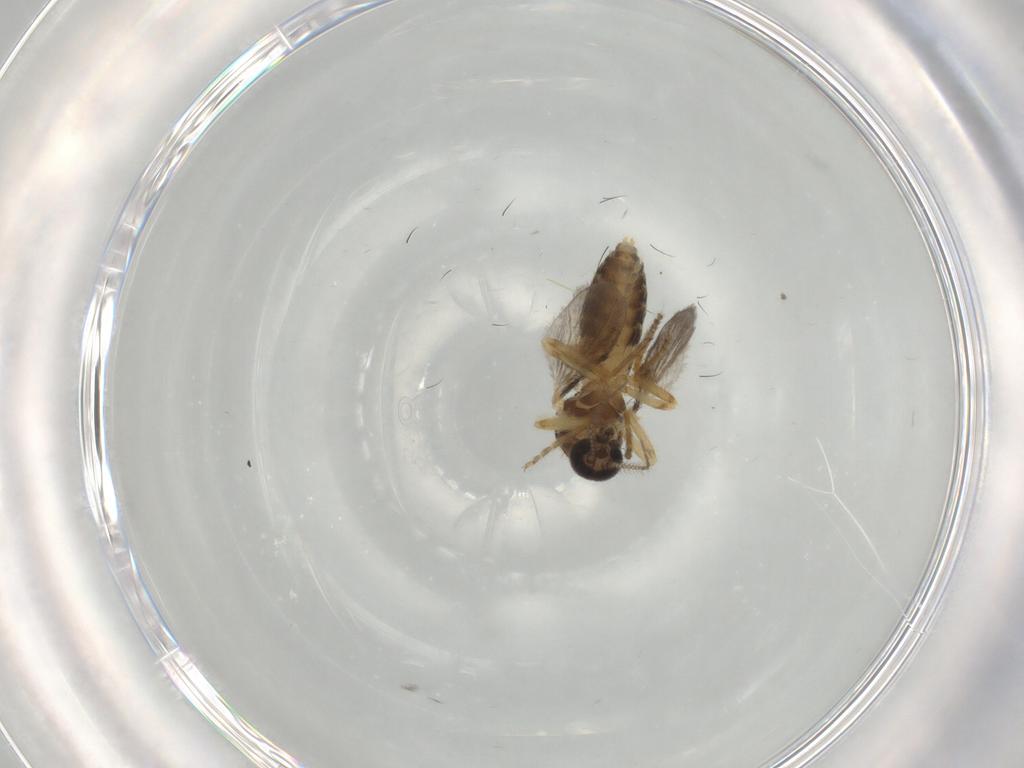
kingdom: Animalia
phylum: Arthropoda
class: Insecta
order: Diptera
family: Ceratopogonidae
